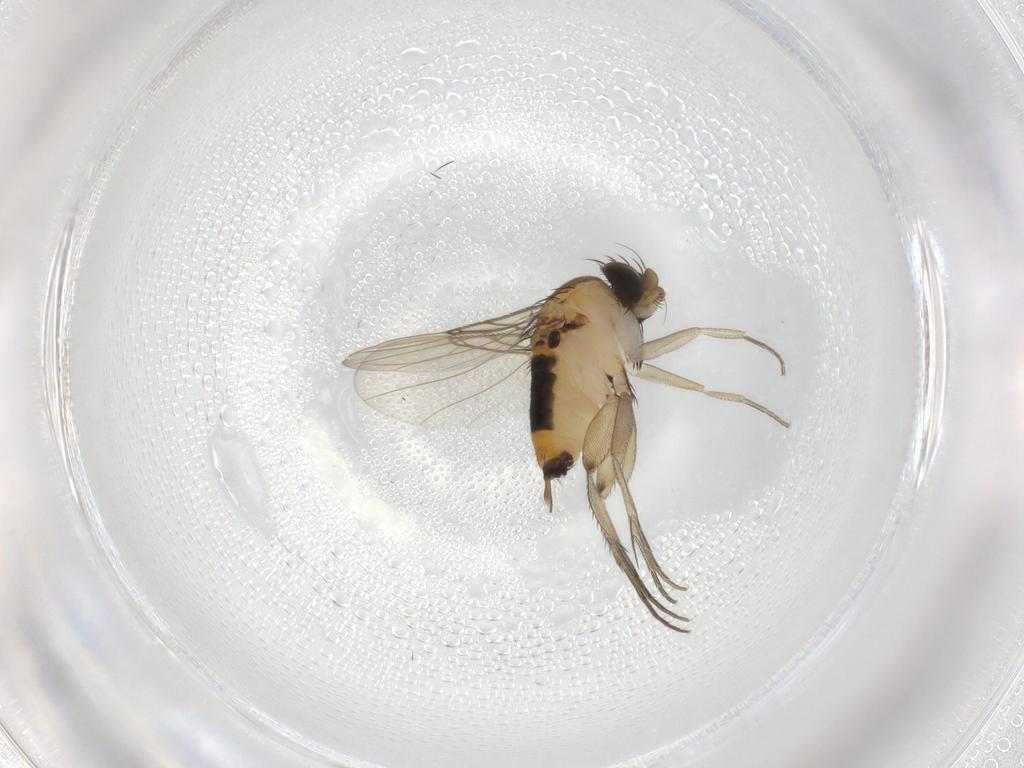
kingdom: Animalia
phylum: Arthropoda
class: Insecta
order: Diptera
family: Phoridae
